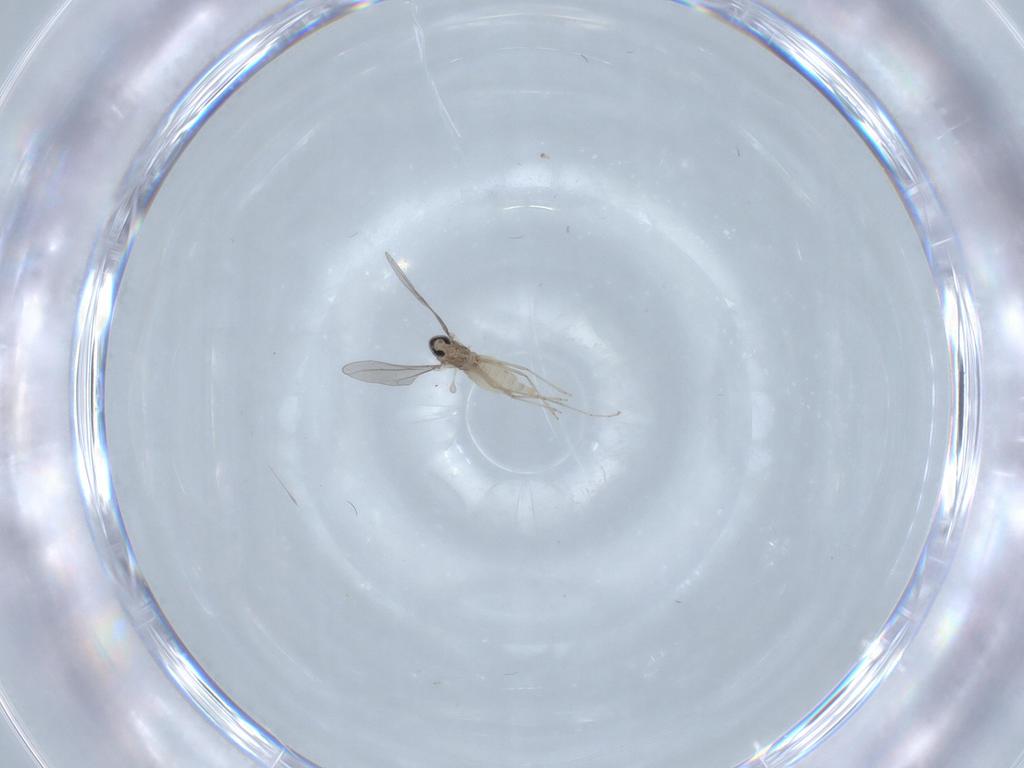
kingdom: Animalia
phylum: Arthropoda
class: Insecta
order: Diptera
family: Cecidomyiidae
